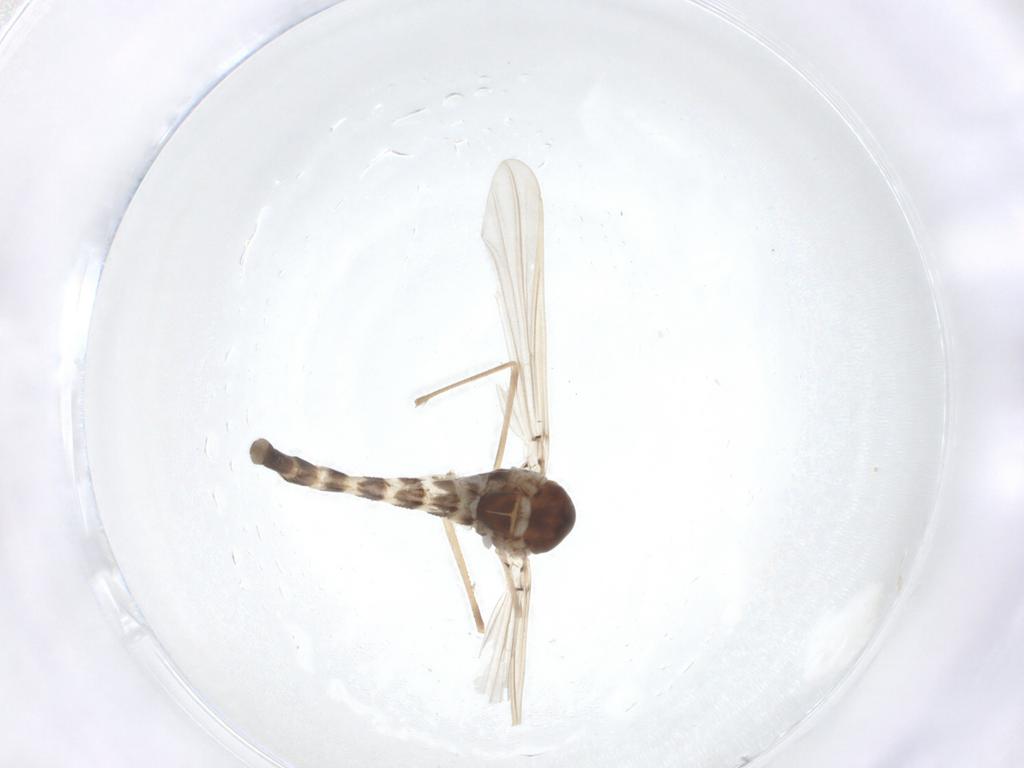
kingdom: Animalia
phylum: Arthropoda
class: Insecta
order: Diptera
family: Chironomidae
